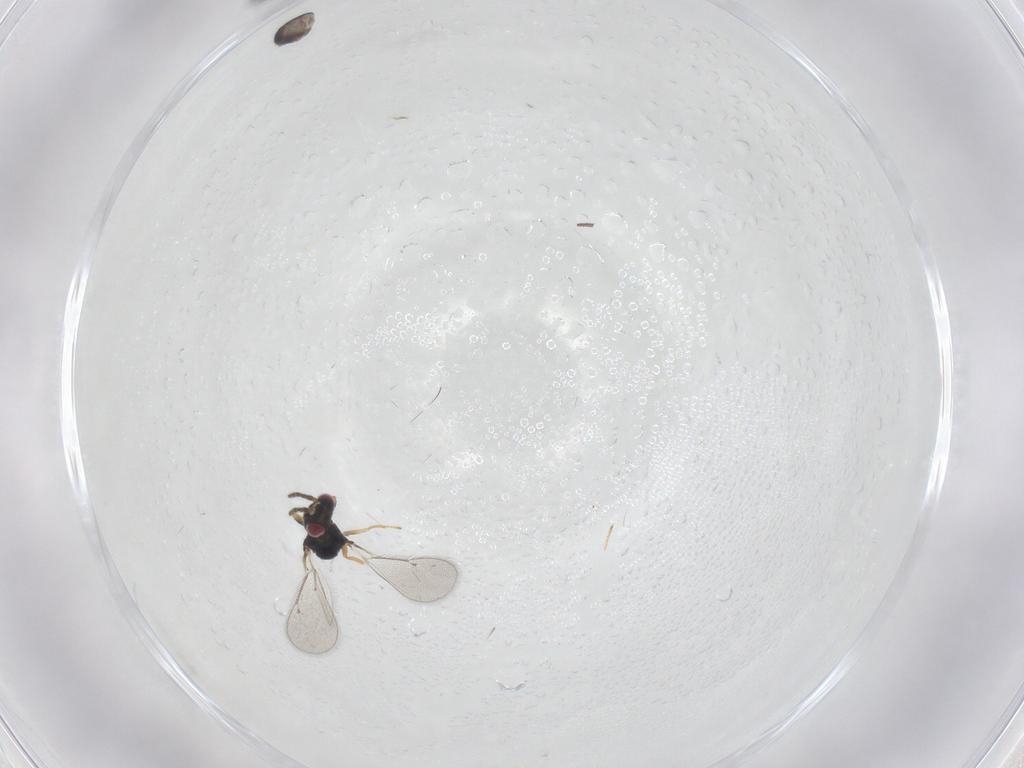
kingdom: Animalia
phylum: Arthropoda
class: Insecta
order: Hymenoptera
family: Eulophidae
